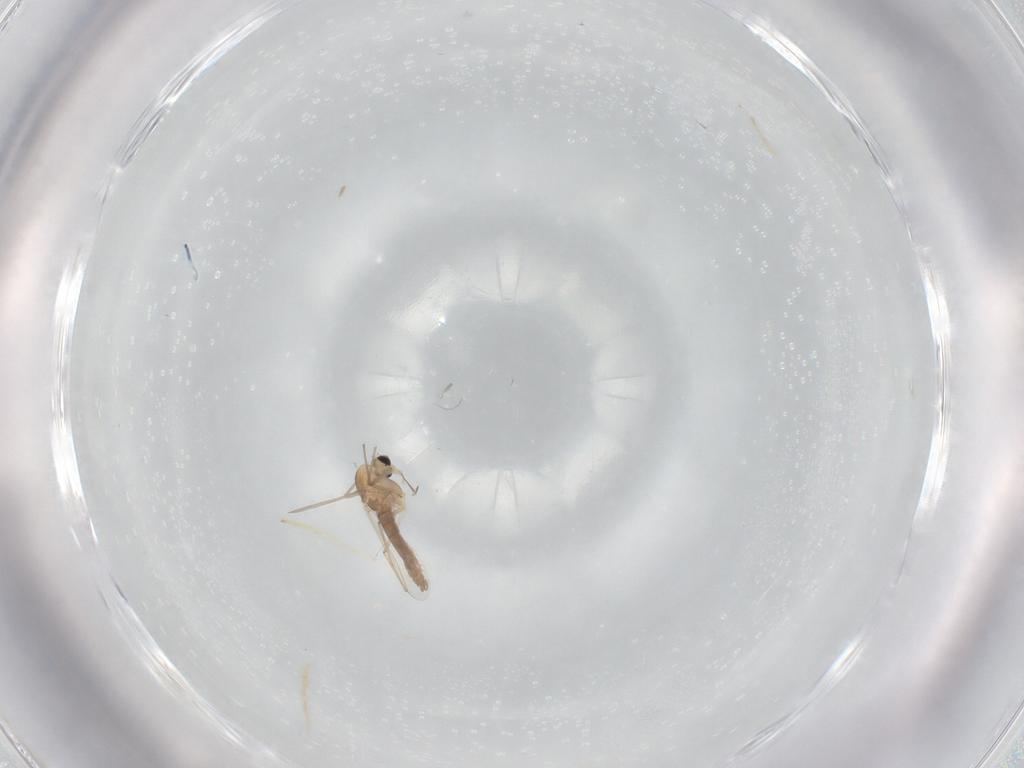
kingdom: Animalia
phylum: Arthropoda
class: Insecta
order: Diptera
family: Chironomidae
